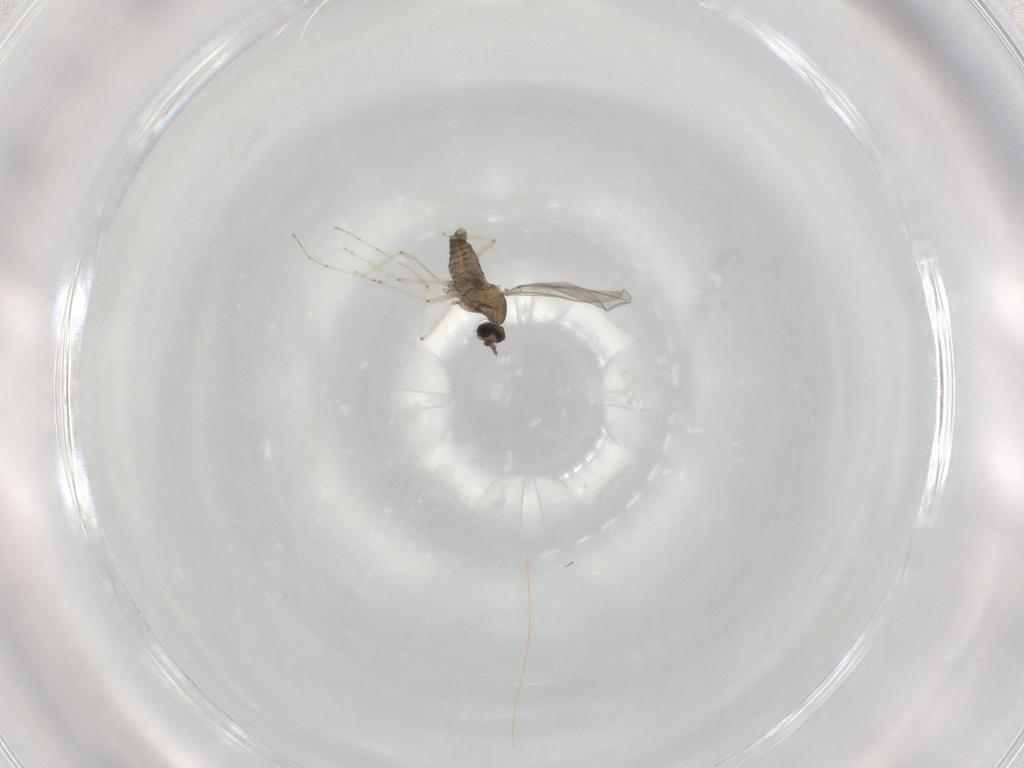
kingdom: Animalia
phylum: Arthropoda
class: Insecta
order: Diptera
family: Cecidomyiidae
